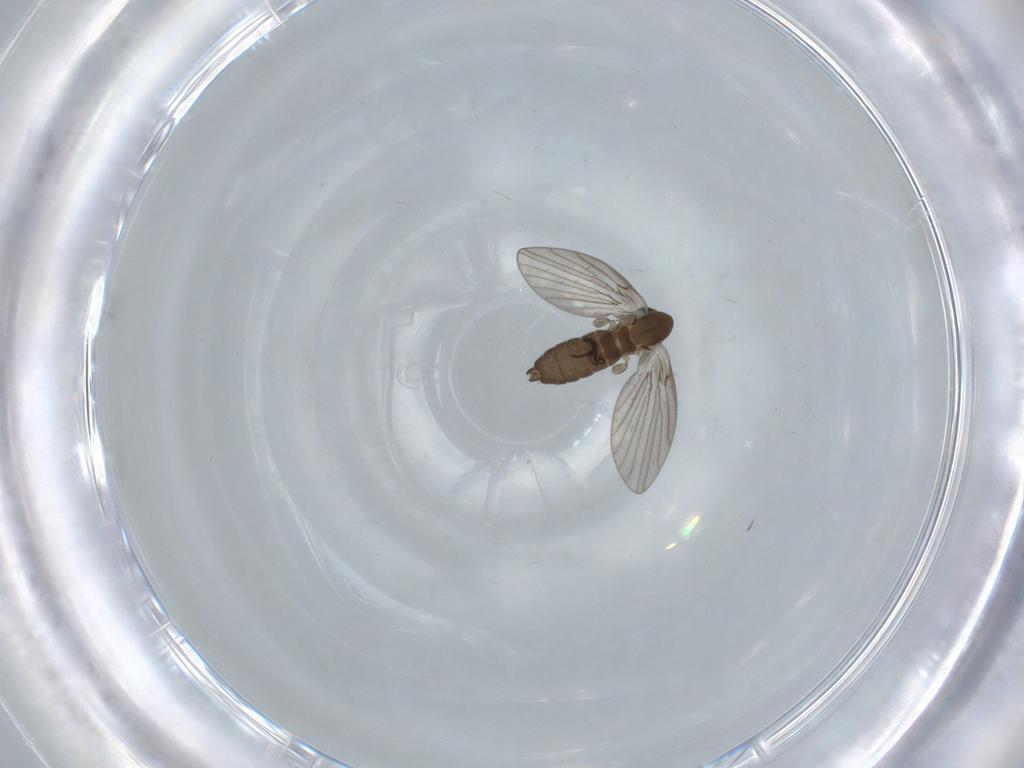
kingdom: Animalia
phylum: Arthropoda
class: Insecta
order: Diptera
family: Psychodidae
